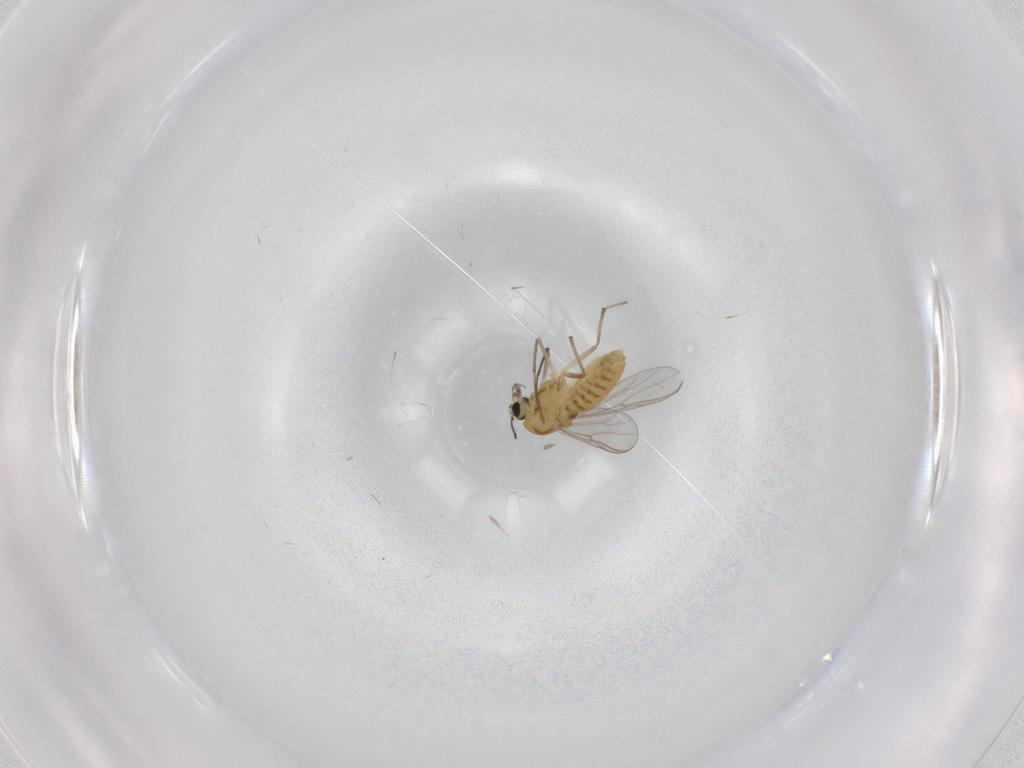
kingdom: Animalia
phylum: Arthropoda
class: Insecta
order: Diptera
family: Chironomidae
